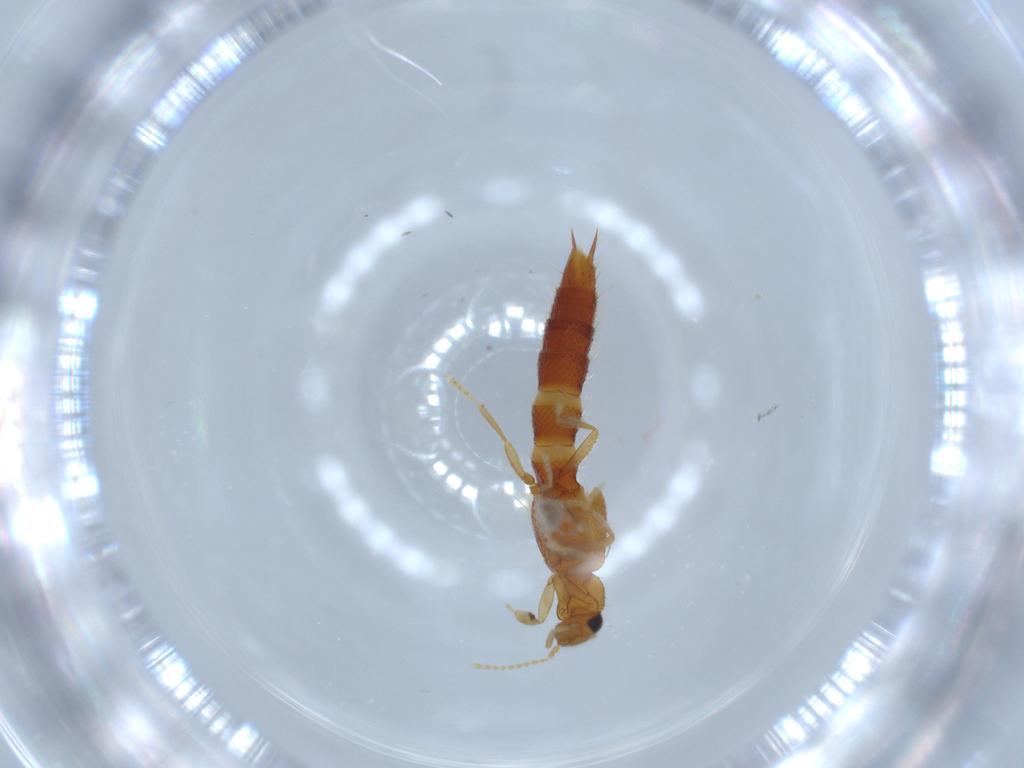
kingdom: Animalia
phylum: Arthropoda
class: Insecta
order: Coleoptera
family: Staphylinidae
